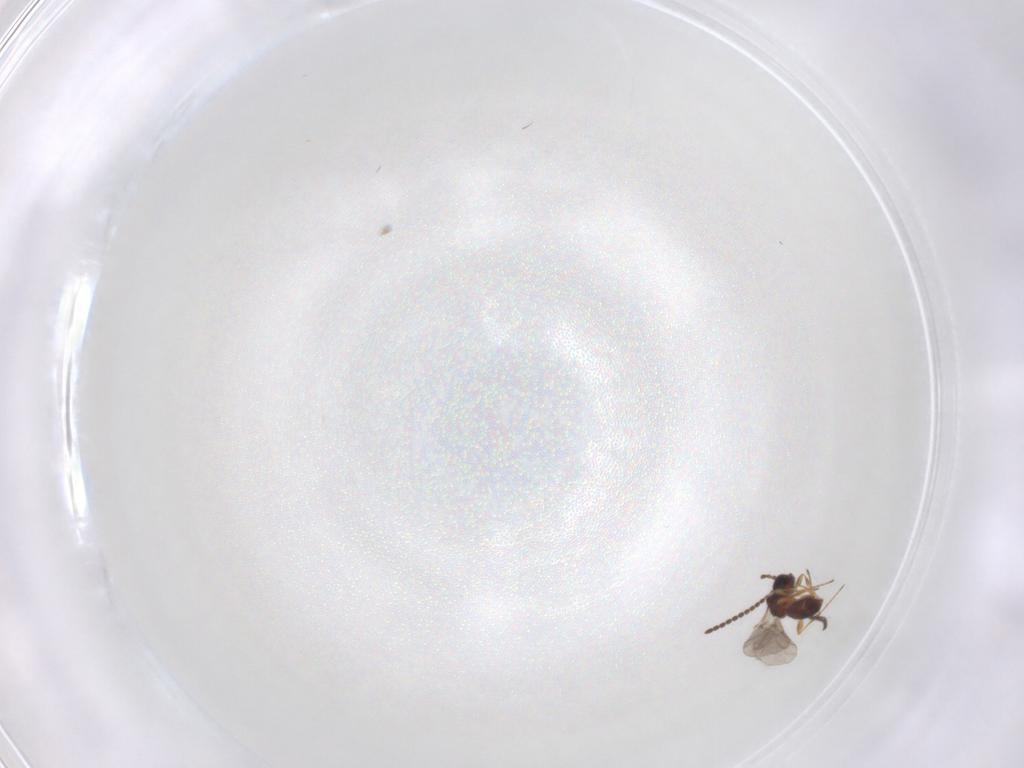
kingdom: Animalia
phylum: Arthropoda
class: Insecta
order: Hymenoptera
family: Diapriidae
